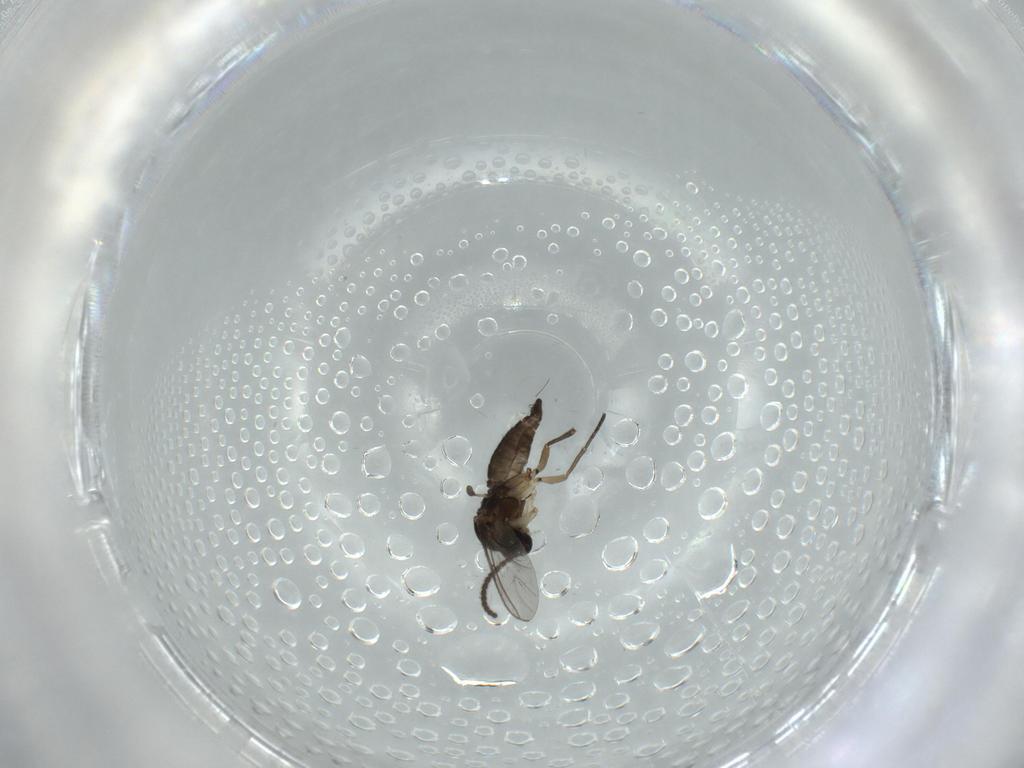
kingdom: Animalia
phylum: Arthropoda
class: Insecta
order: Diptera
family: Sciaridae
